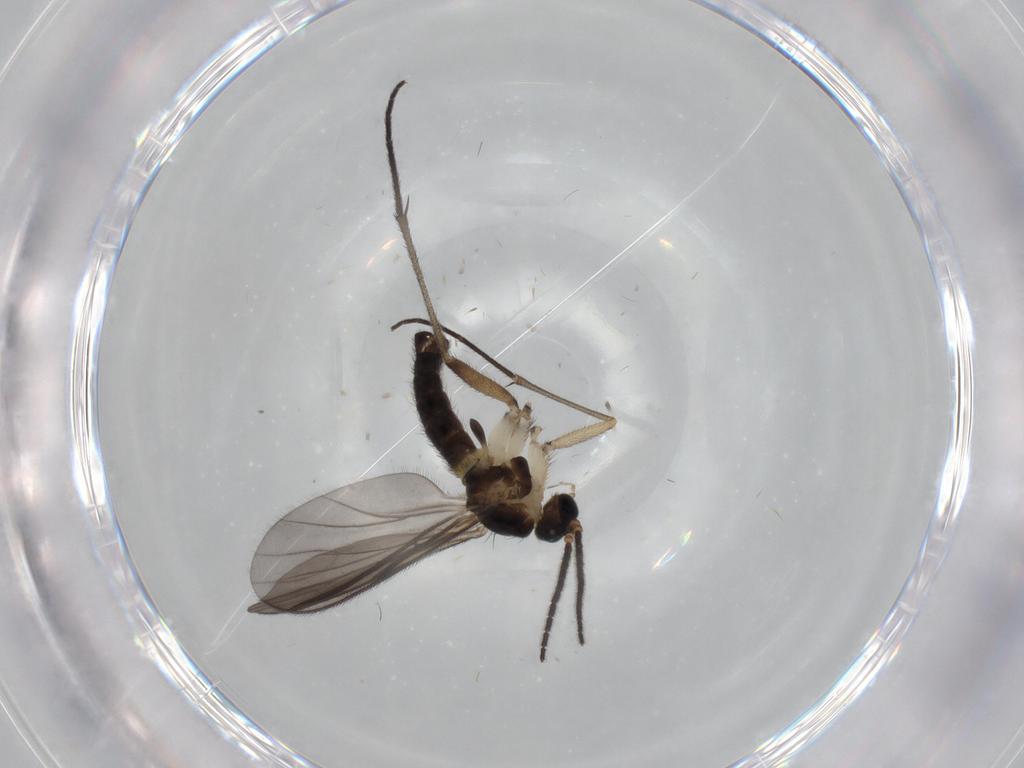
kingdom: Animalia
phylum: Arthropoda
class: Insecta
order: Diptera
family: Sciaridae
